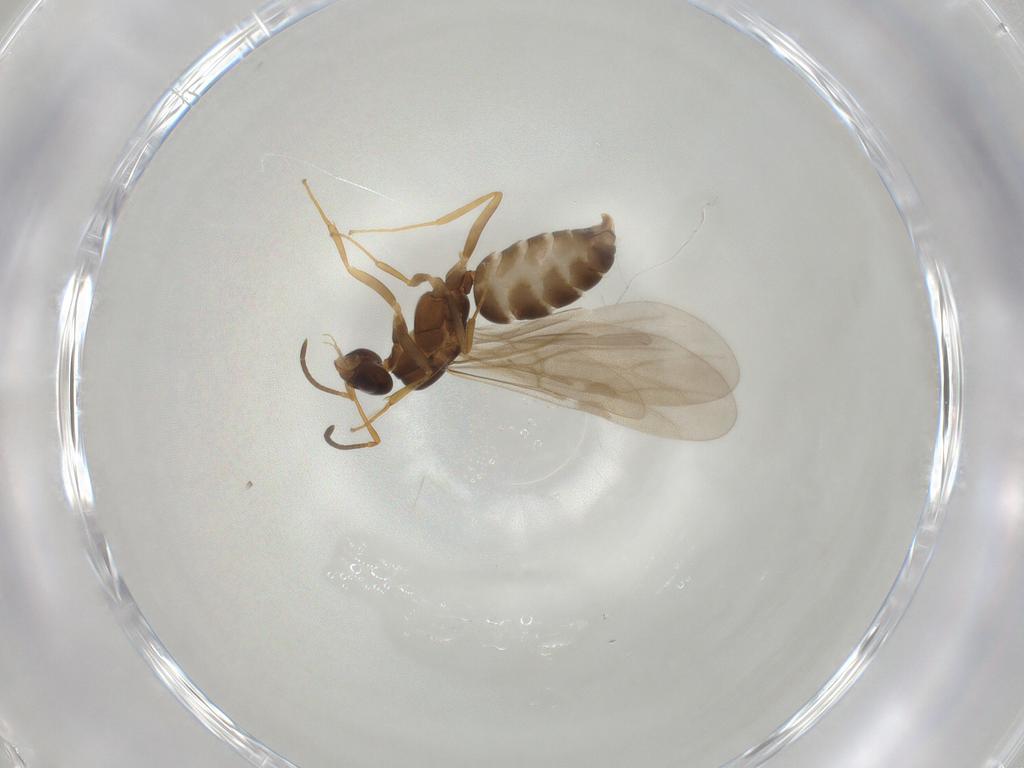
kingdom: Animalia
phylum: Arthropoda
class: Insecta
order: Hymenoptera
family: Formicidae
